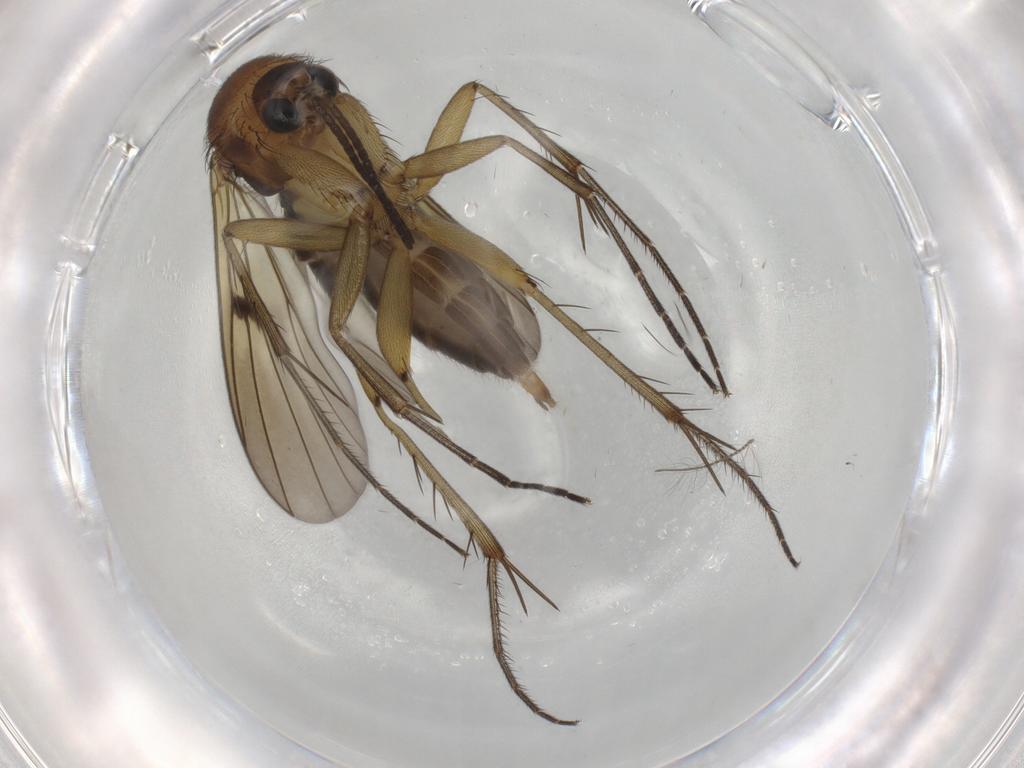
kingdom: Animalia
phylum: Arthropoda
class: Insecta
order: Diptera
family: Mycetophilidae
